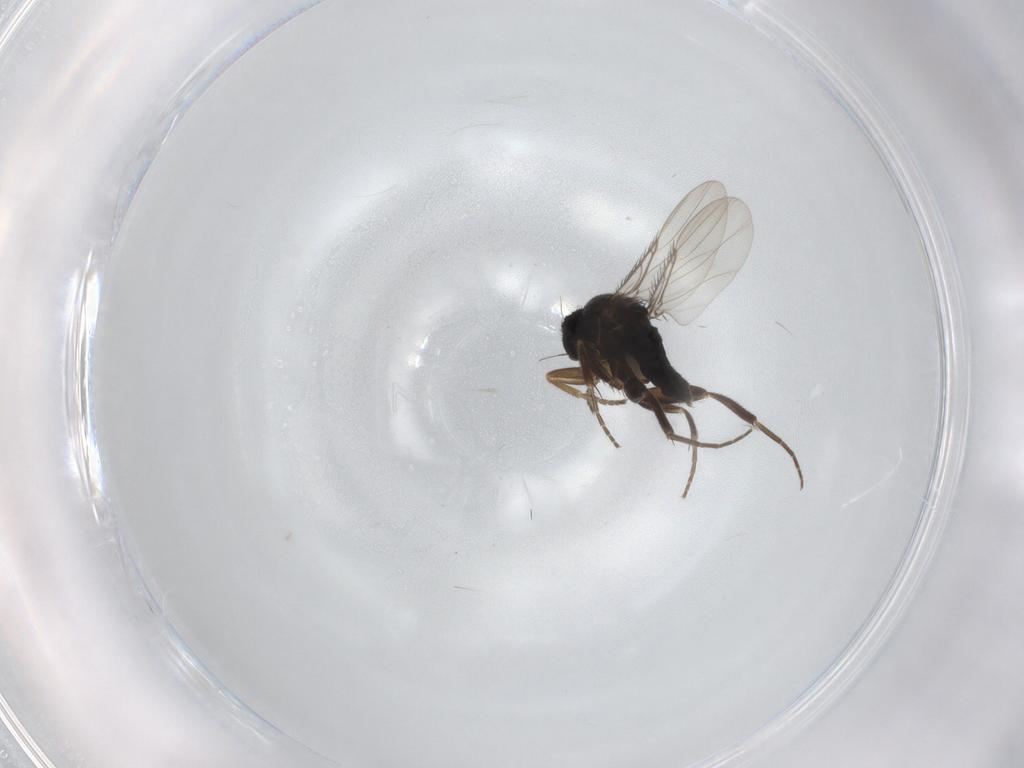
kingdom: Animalia
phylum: Arthropoda
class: Insecta
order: Diptera
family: Phoridae
